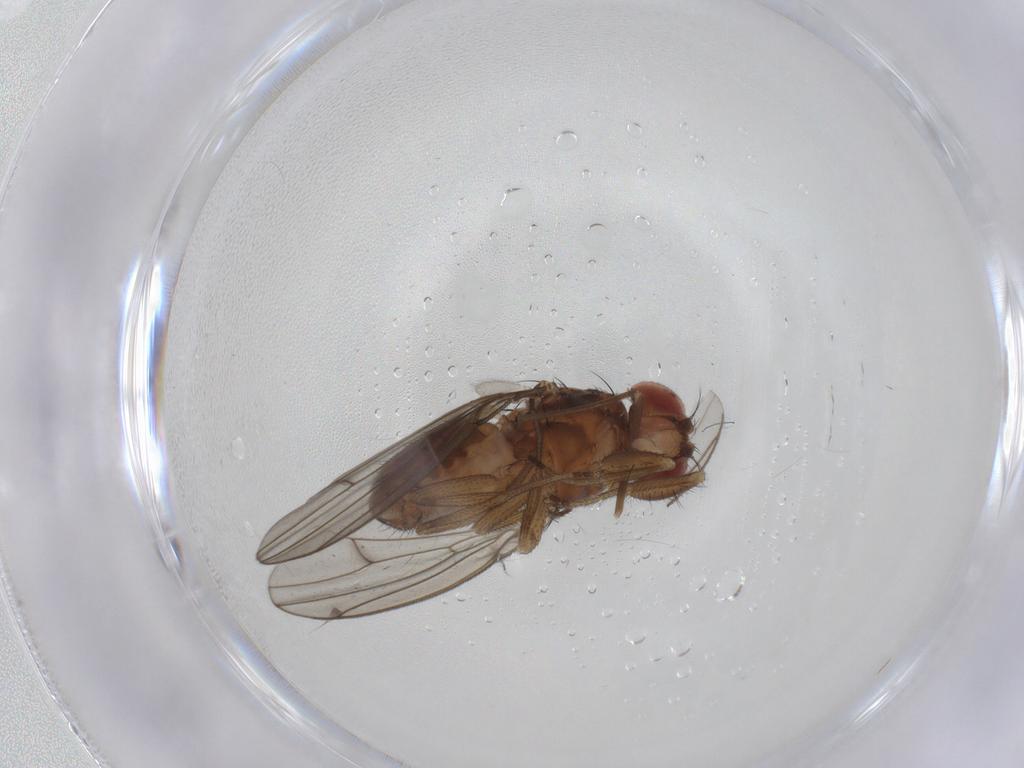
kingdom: Animalia
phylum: Arthropoda
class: Insecta
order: Diptera
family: Drosophilidae
